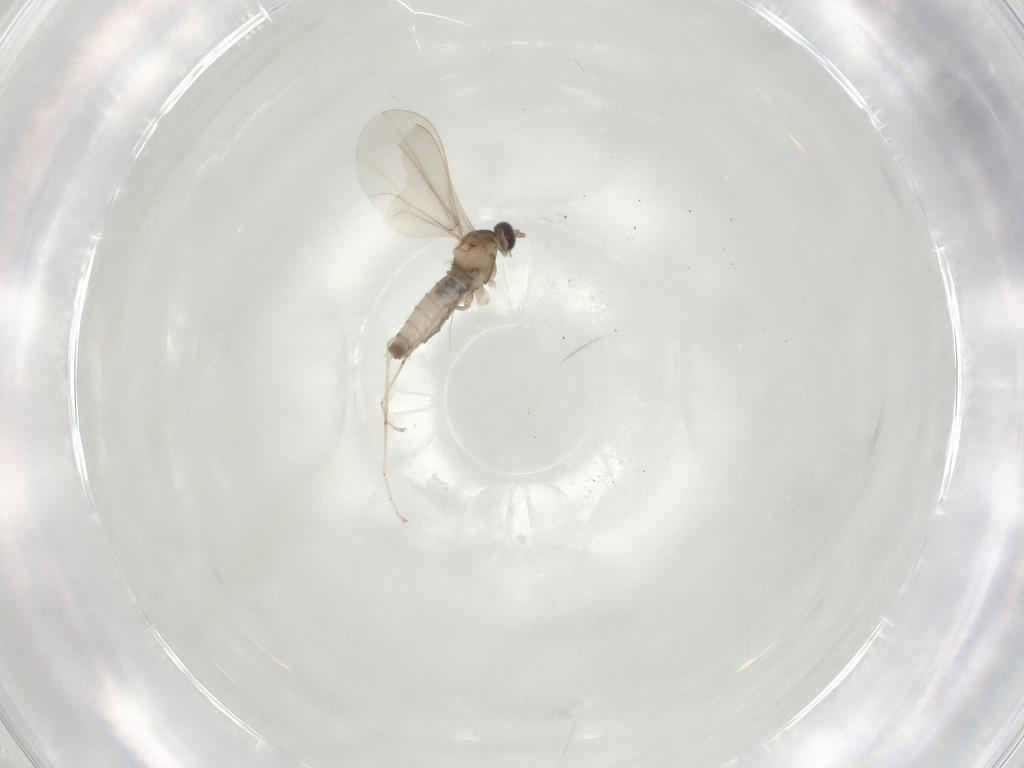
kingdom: Animalia
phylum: Arthropoda
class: Insecta
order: Diptera
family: Cecidomyiidae
